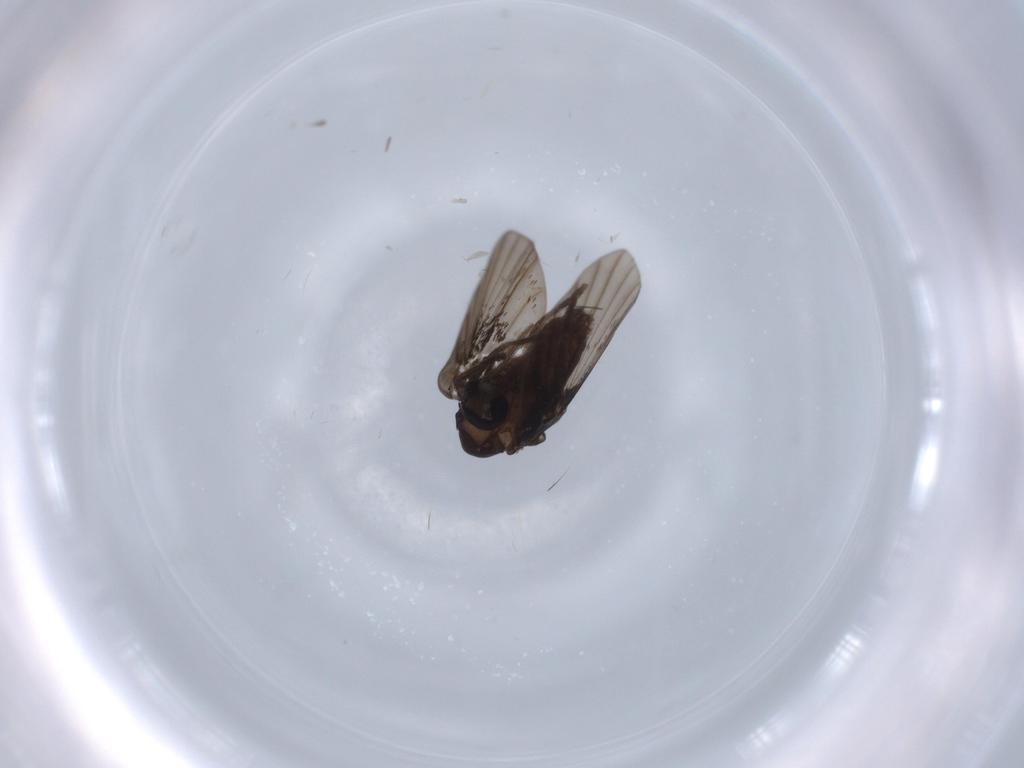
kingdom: Animalia
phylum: Arthropoda
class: Insecta
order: Diptera
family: Psychodidae
